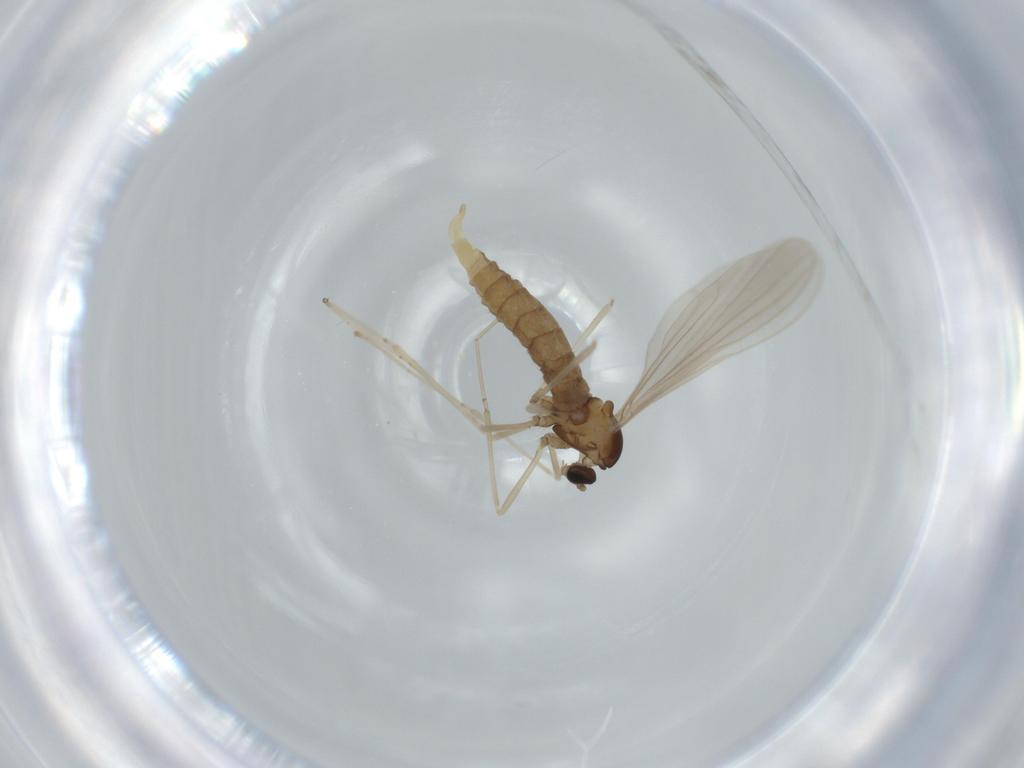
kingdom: Animalia
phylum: Arthropoda
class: Insecta
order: Diptera
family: Cecidomyiidae
